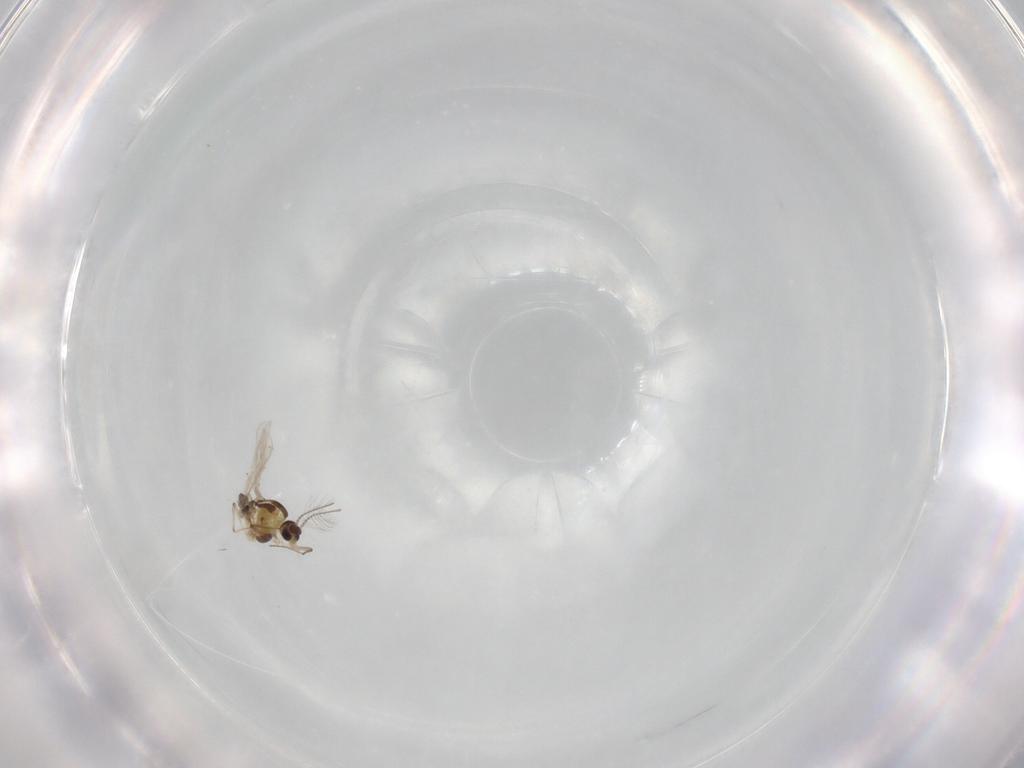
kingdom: Animalia
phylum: Arthropoda
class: Insecta
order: Diptera
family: Chironomidae
